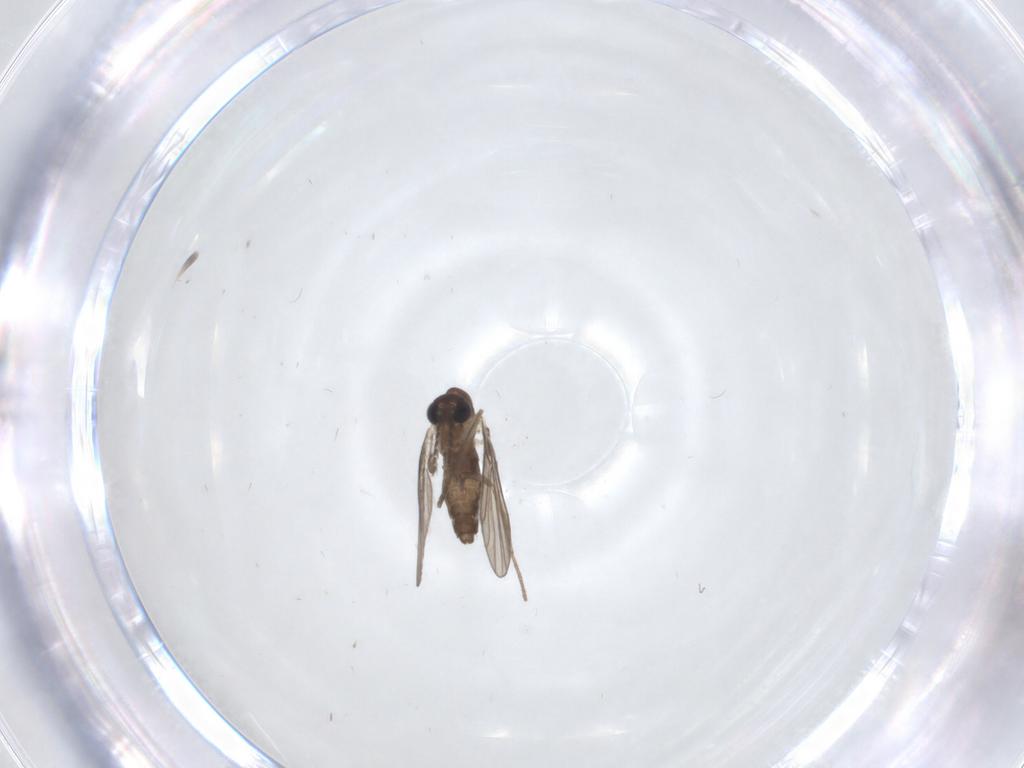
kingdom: Animalia
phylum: Arthropoda
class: Insecta
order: Diptera
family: Psychodidae
